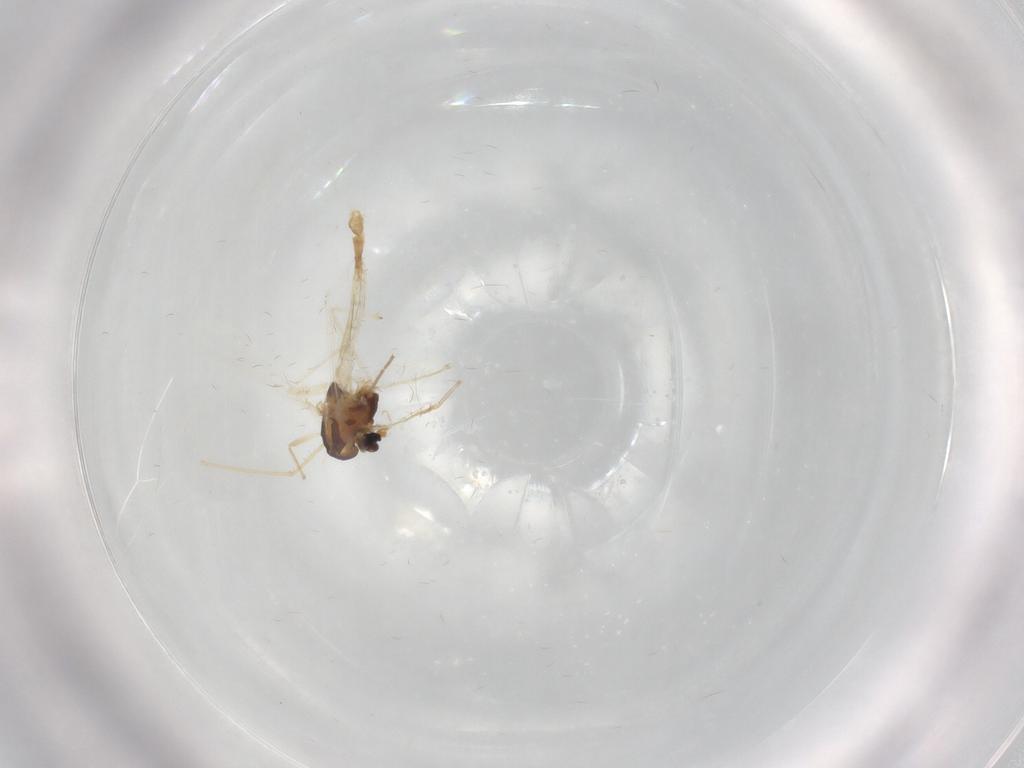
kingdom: Animalia
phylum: Arthropoda
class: Insecta
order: Diptera
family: Chironomidae
